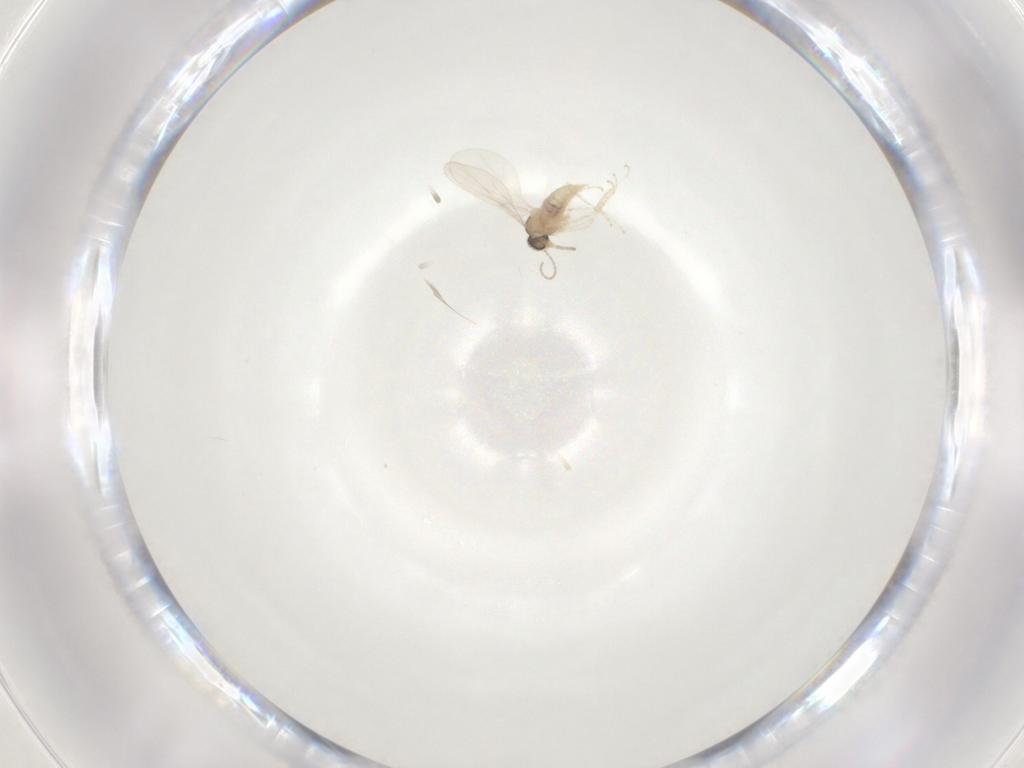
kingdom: Animalia
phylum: Arthropoda
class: Insecta
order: Diptera
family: Cecidomyiidae
